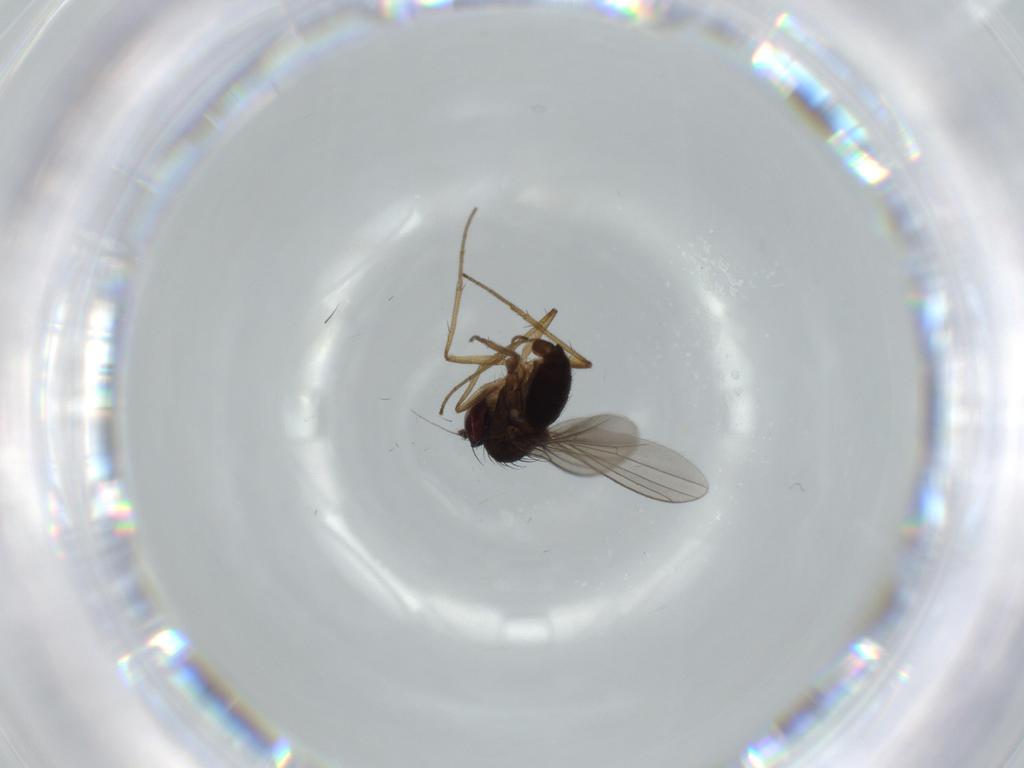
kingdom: Animalia
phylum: Arthropoda
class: Insecta
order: Diptera
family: Dolichopodidae
